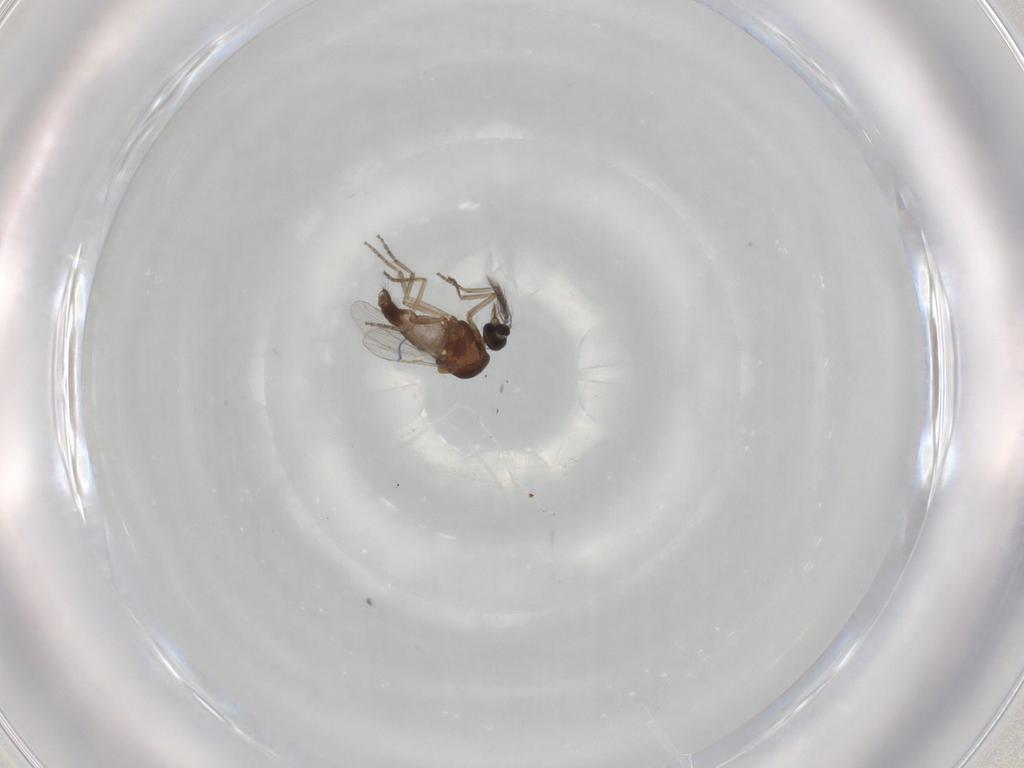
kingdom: Animalia
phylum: Arthropoda
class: Insecta
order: Diptera
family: Ceratopogonidae
